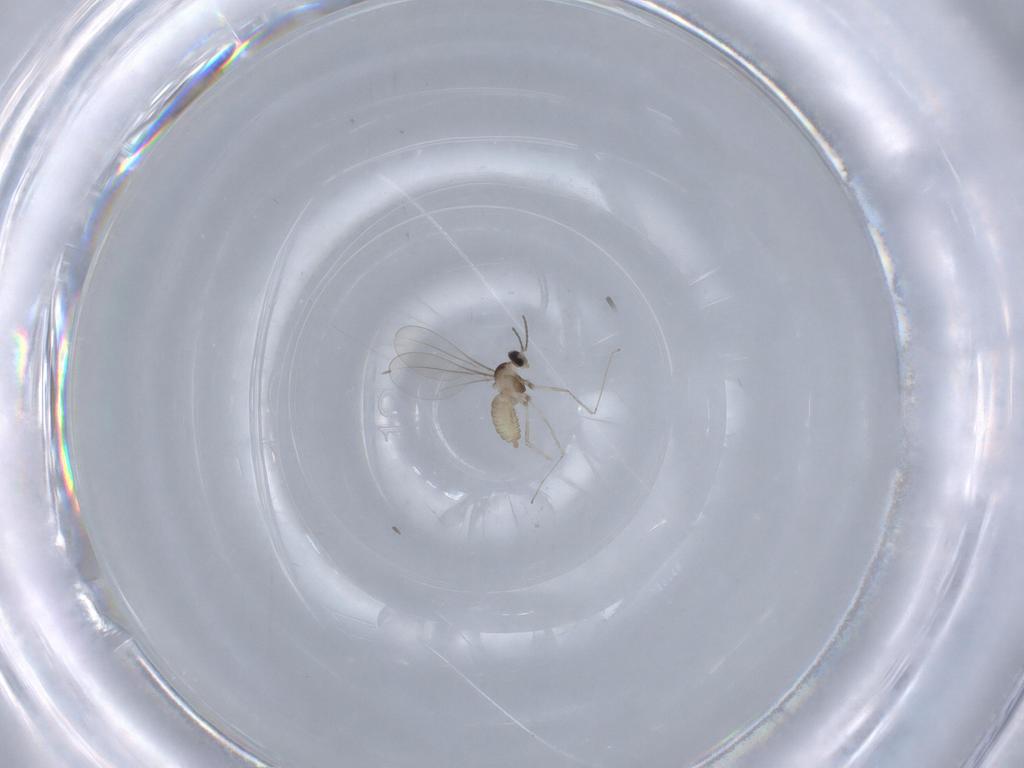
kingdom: Animalia
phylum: Arthropoda
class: Insecta
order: Diptera
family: Cecidomyiidae
